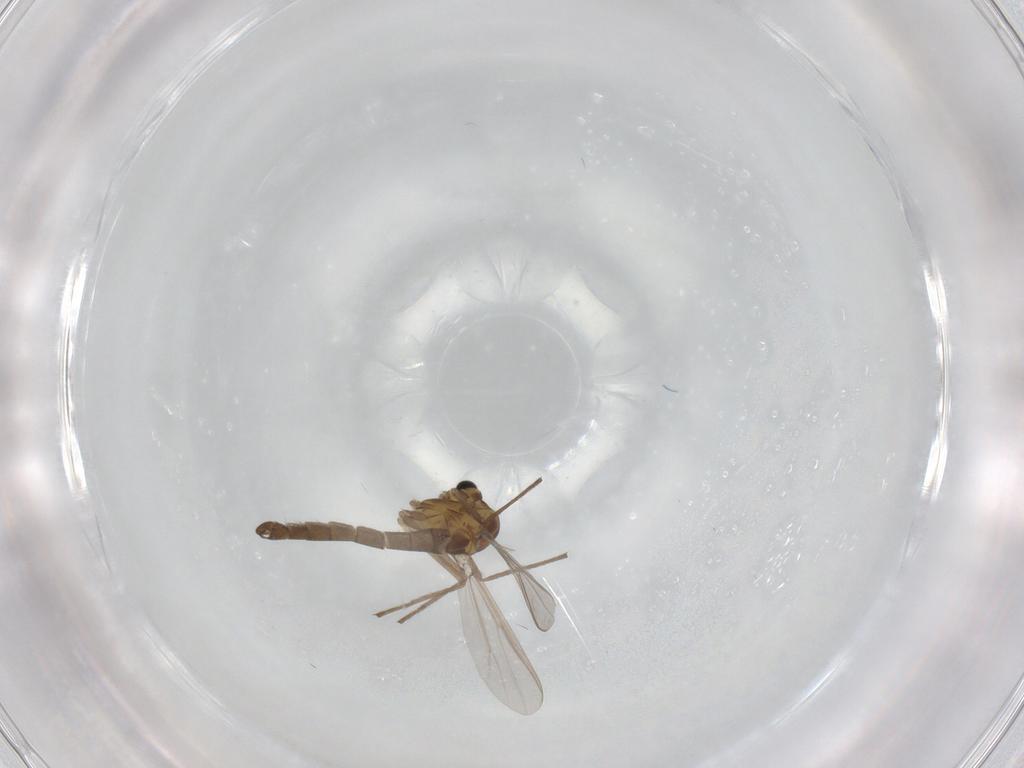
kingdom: Animalia
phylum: Arthropoda
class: Insecta
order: Diptera
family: Chironomidae
